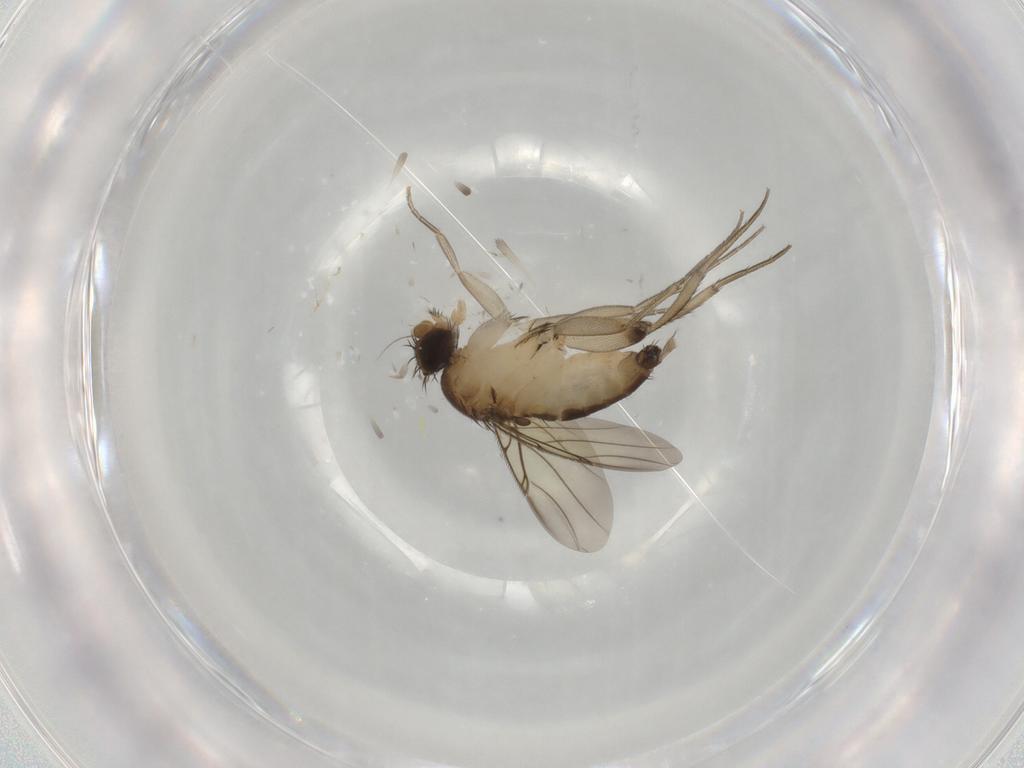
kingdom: Animalia
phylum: Arthropoda
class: Insecta
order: Diptera
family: Phoridae
